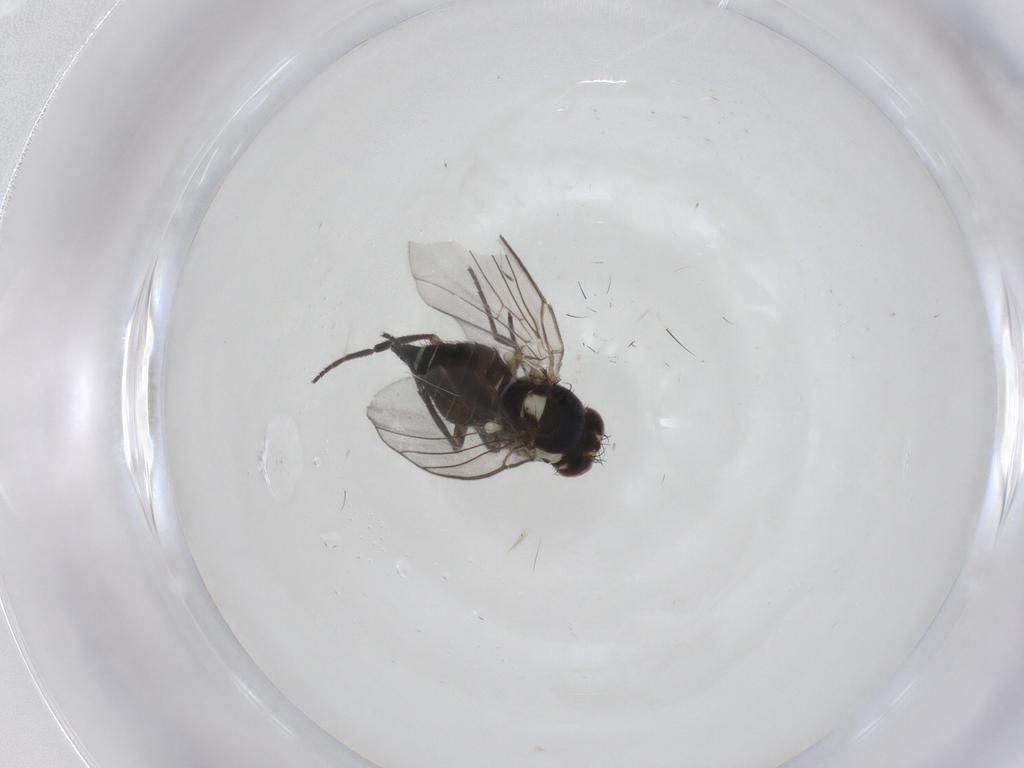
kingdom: Animalia
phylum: Arthropoda
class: Insecta
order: Diptera
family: Agromyzidae
